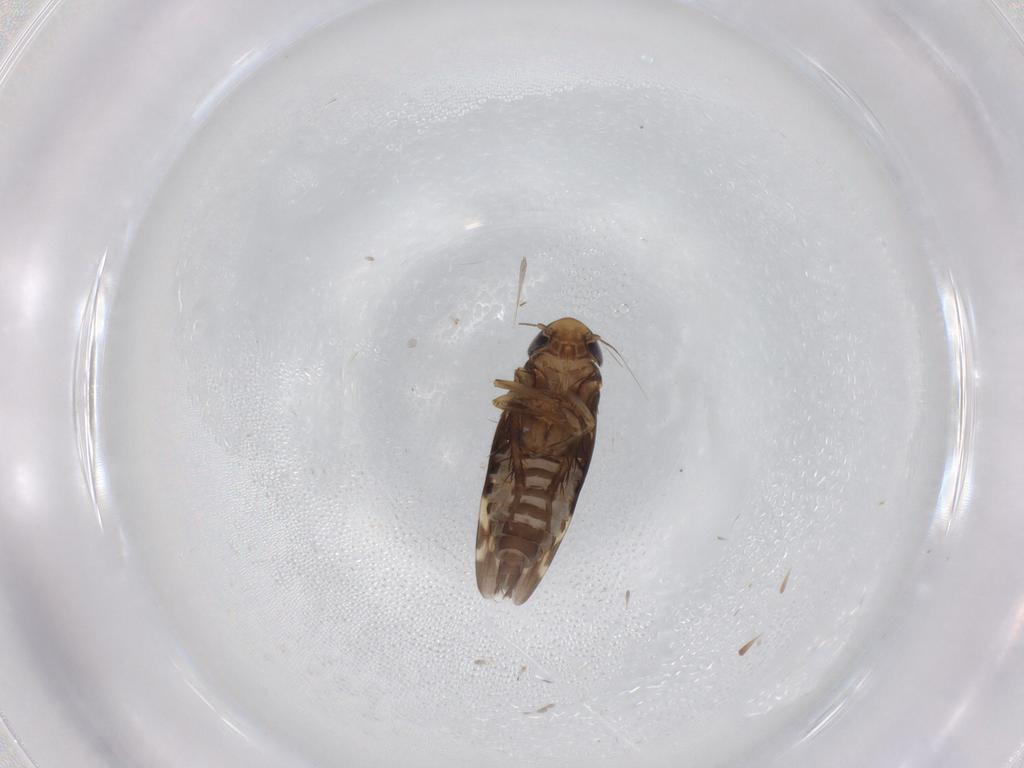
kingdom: Animalia
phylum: Arthropoda
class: Insecta
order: Hemiptera
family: Cicadellidae
